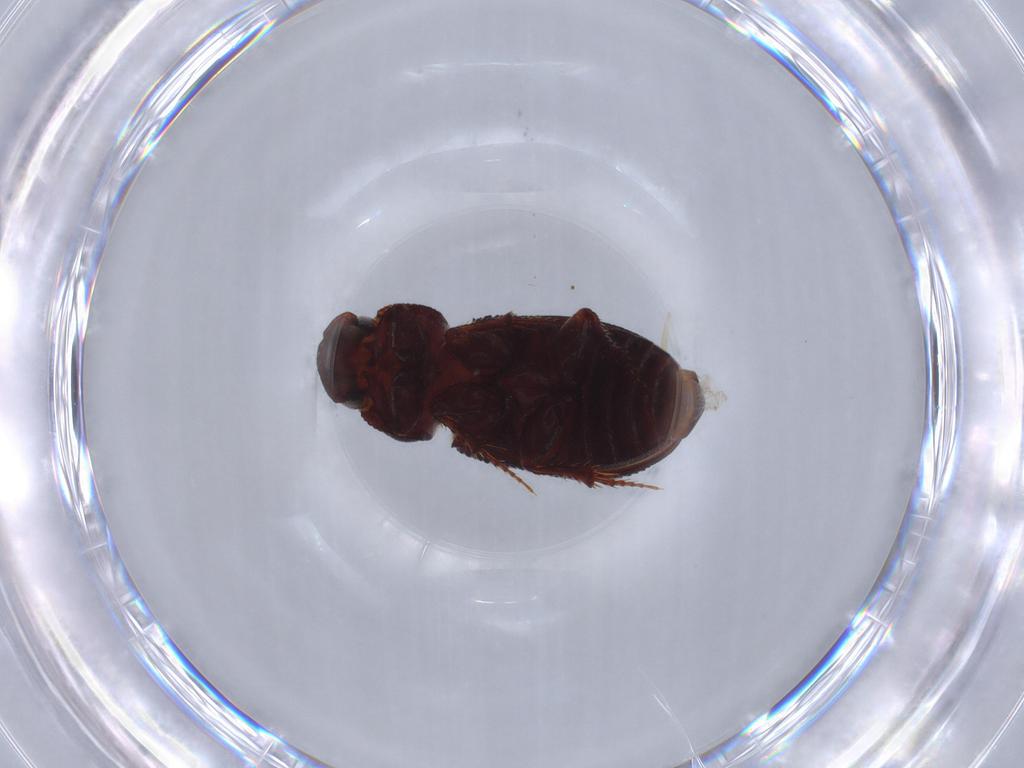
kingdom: Animalia
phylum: Arthropoda
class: Insecta
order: Coleoptera
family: Scarabaeidae
